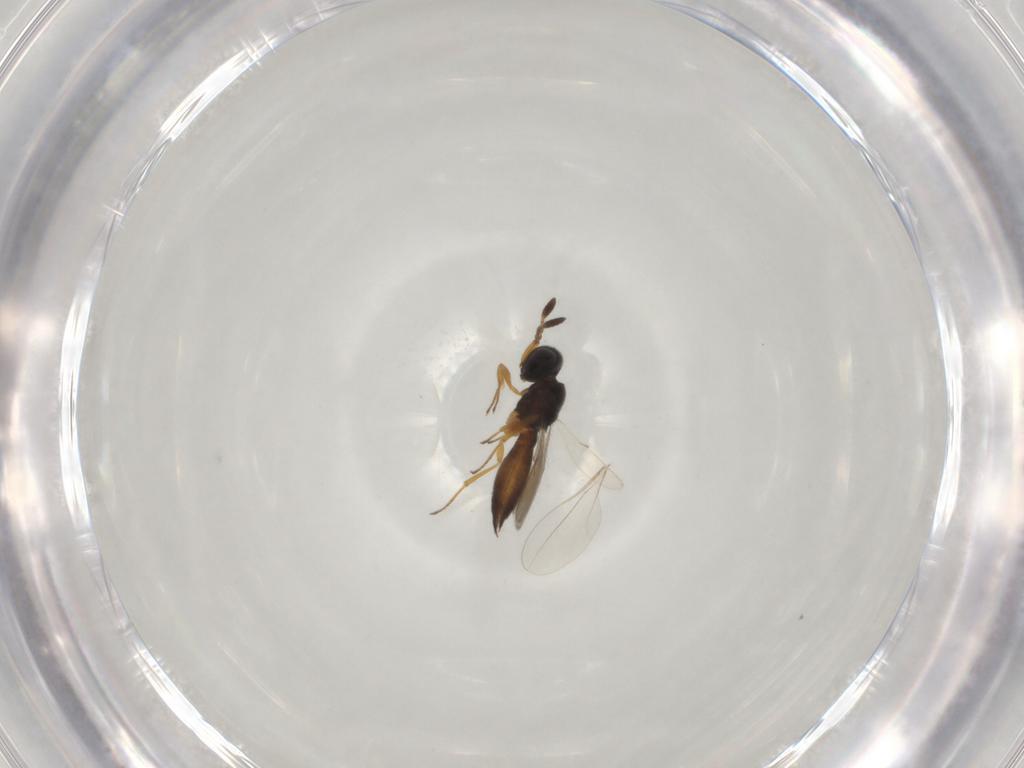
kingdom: Animalia
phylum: Arthropoda
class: Insecta
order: Hymenoptera
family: Scelionidae
